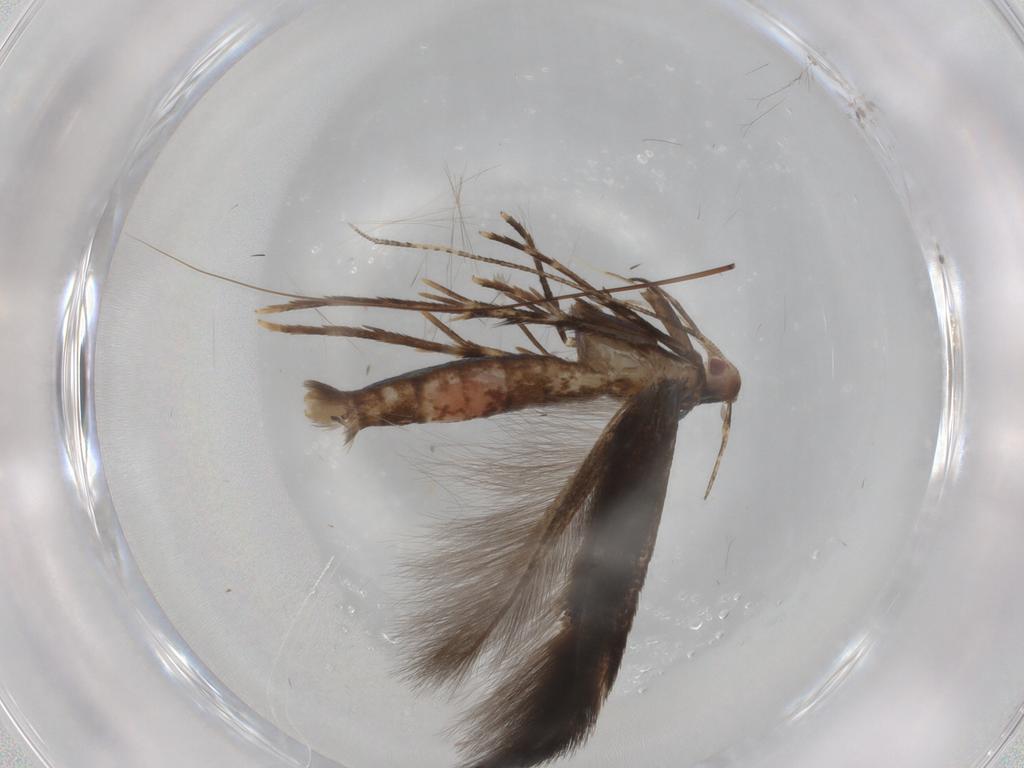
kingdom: Animalia
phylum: Arthropoda
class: Insecta
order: Lepidoptera
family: Cosmopterigidae
